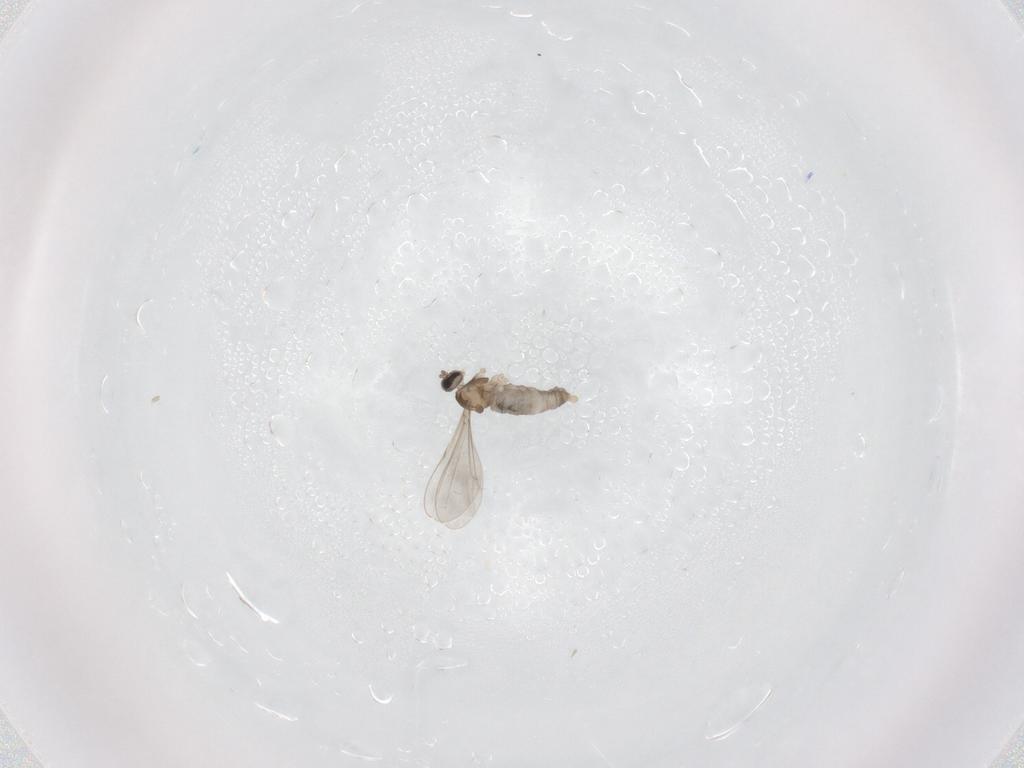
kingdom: Animalia
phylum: Arthropoda
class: Insecta
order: Diptera
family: Cecidomyiidae
